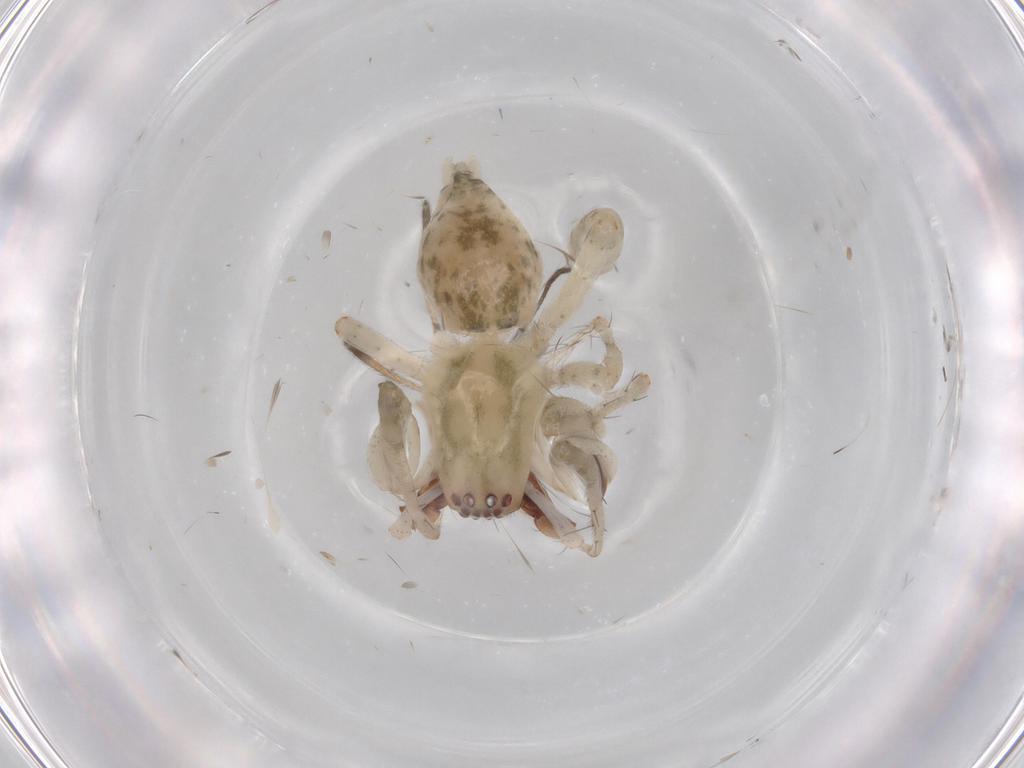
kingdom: Animalia
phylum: Arthropoda
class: Arachnida
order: Araneae
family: Anyphaenidae
